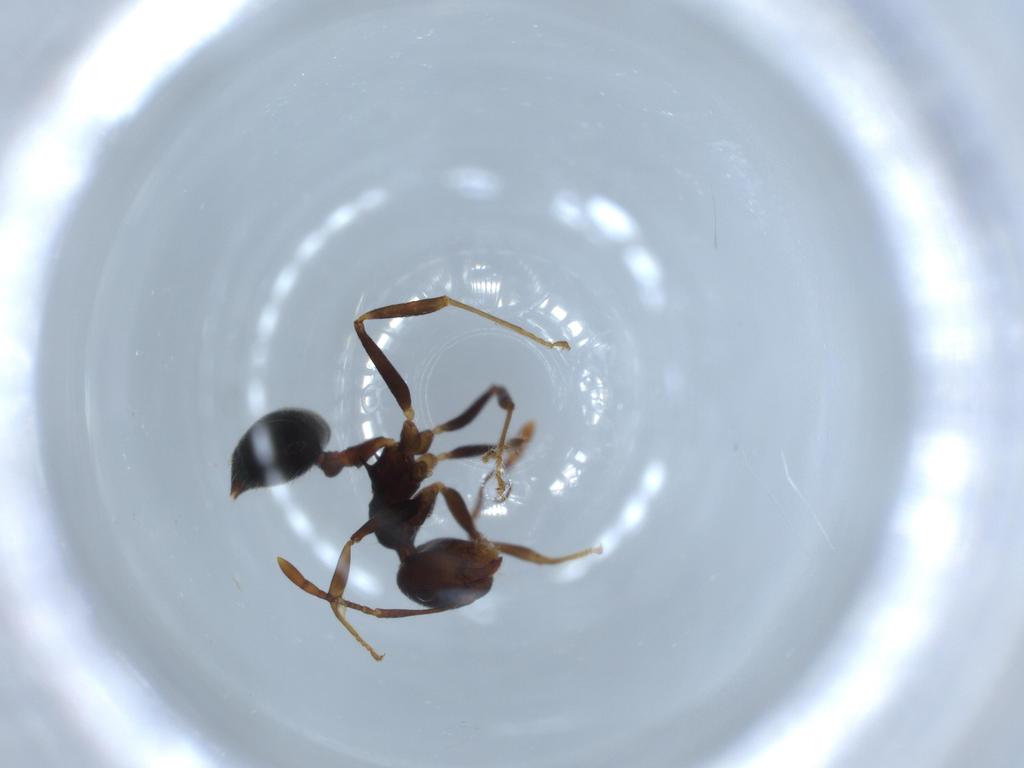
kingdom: Animalia
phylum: Arthropoda
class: Insecta
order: Hymenoptera
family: Formicidae
